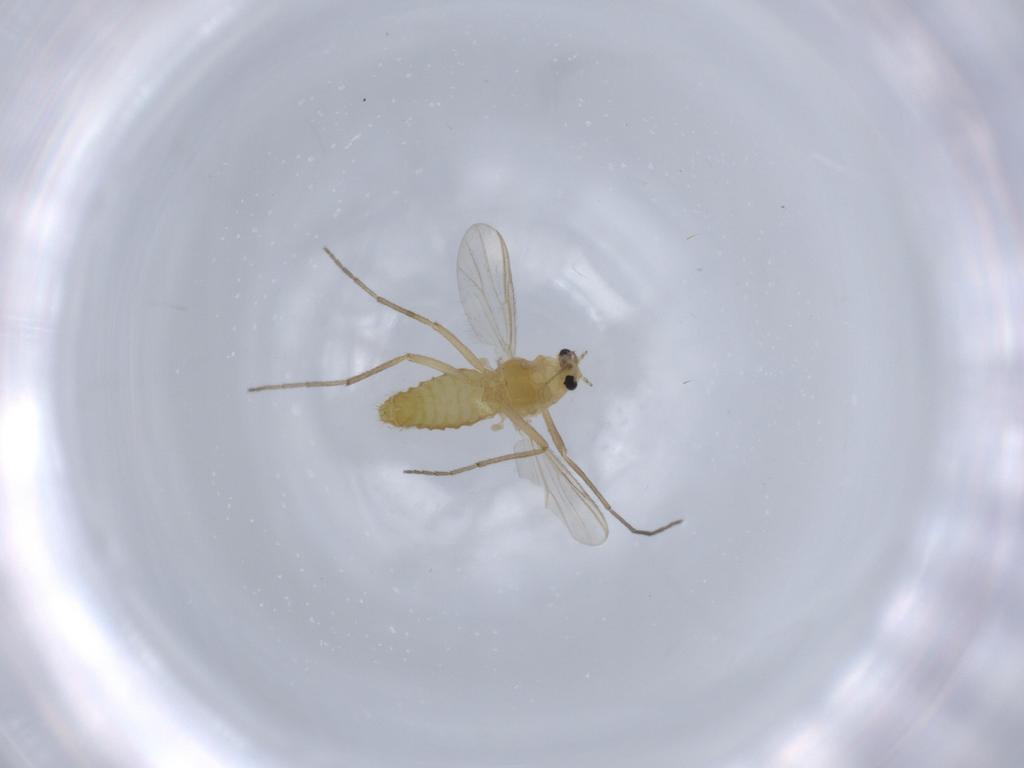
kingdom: Animalia
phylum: Arthropoda
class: Insecta
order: Diptera
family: Chironomidae
